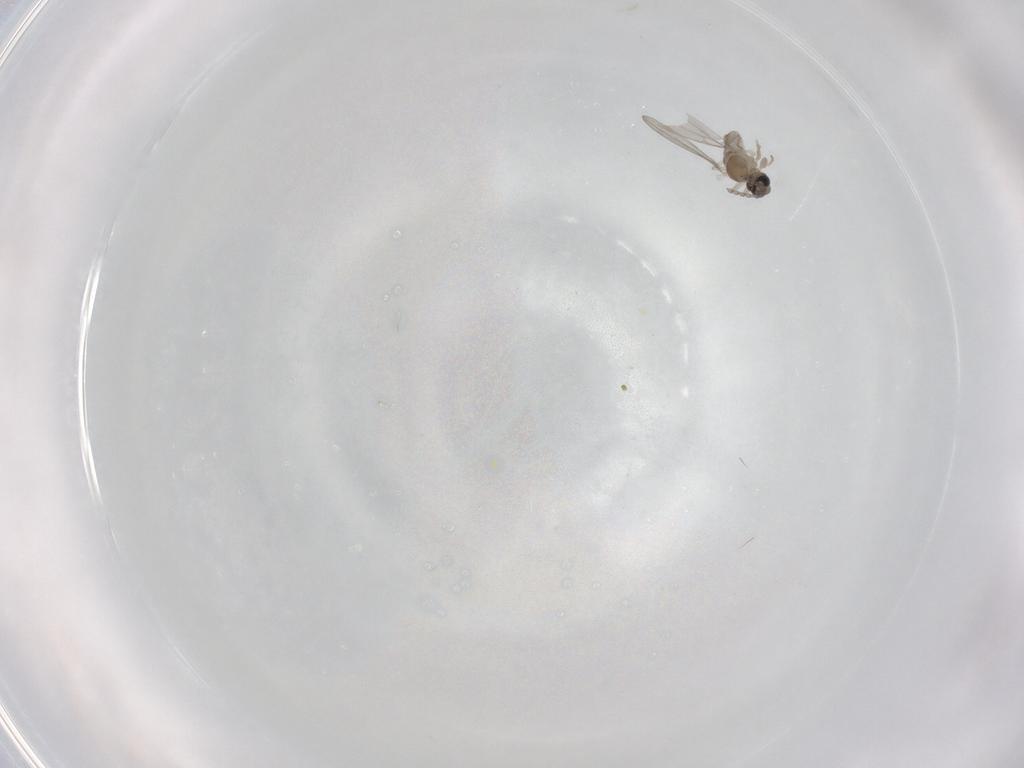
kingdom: Animalia
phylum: Arthropoda
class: Insecta
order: Diptera
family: Cecidomyiidae
